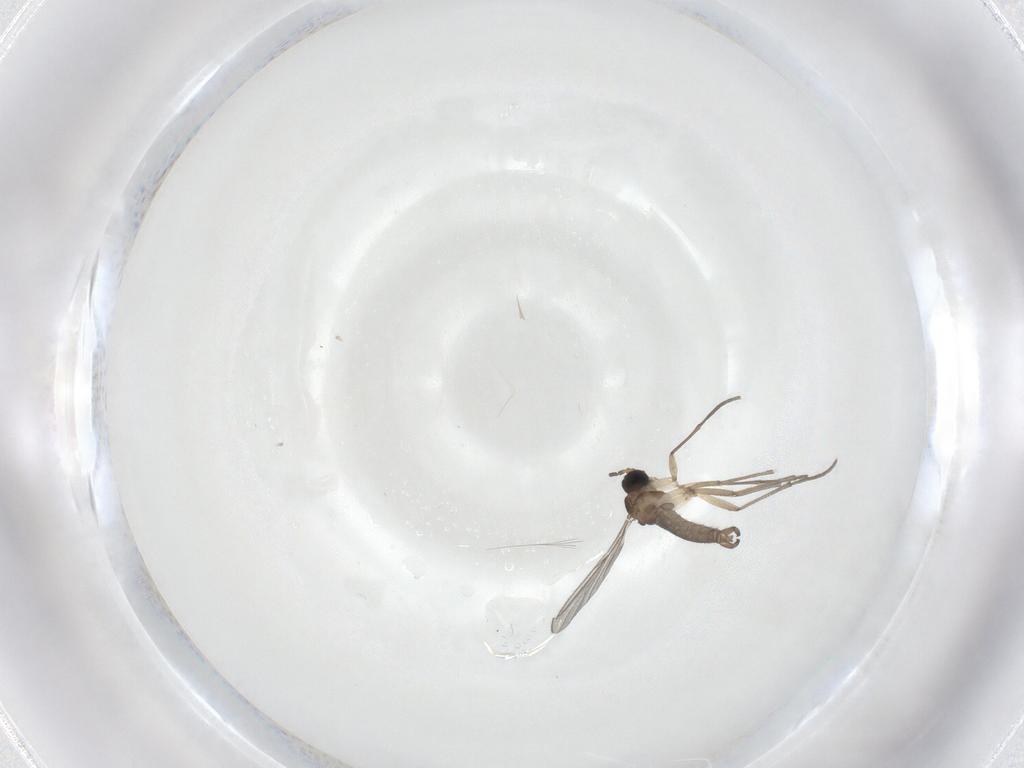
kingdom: Animalia
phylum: Arthropoda
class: Insecta
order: Diptera
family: Sciaridae
